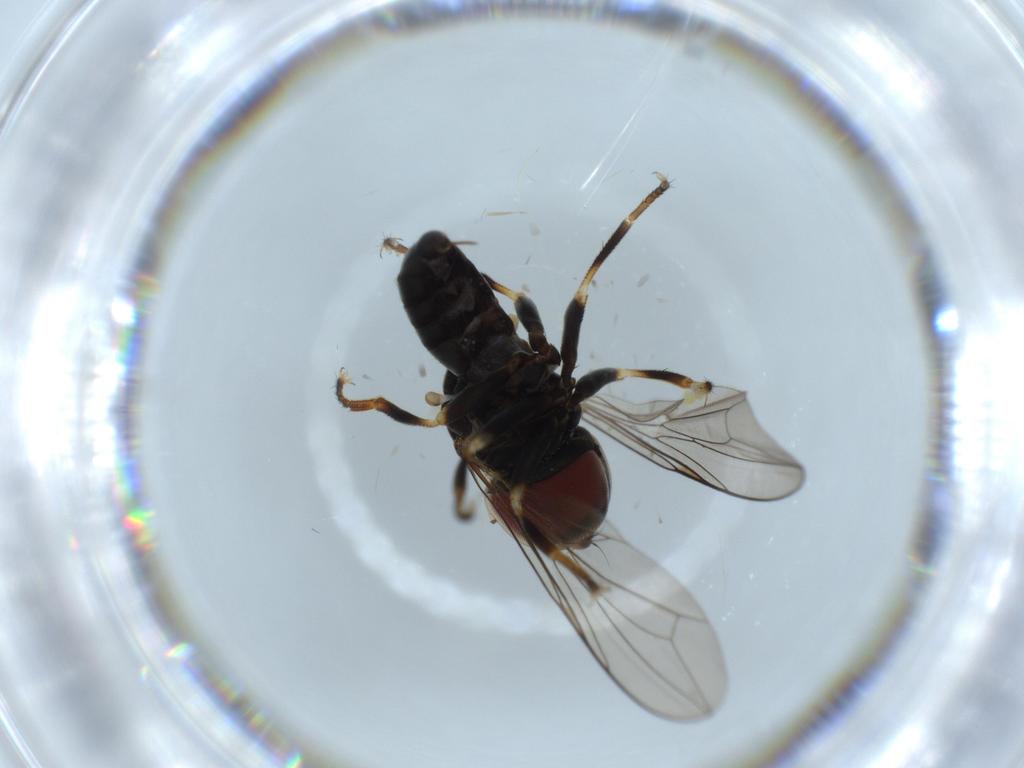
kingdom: Animalia
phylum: Arthropoda
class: Insecta
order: Diptera
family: Pipunculidae
